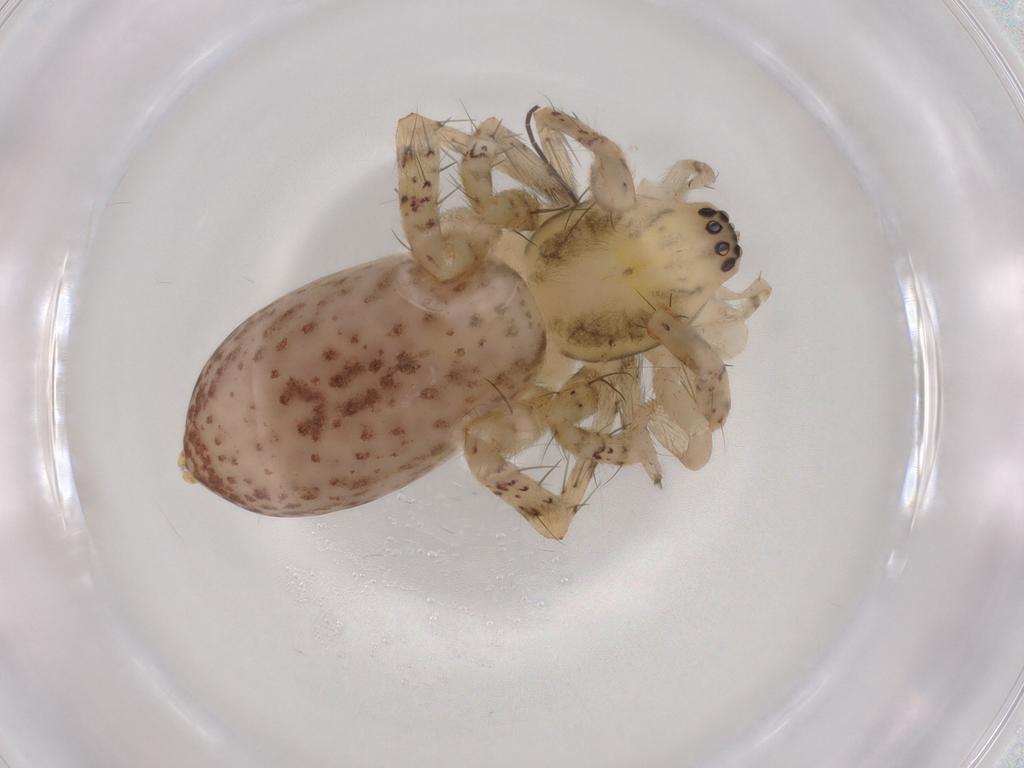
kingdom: Animalia
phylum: Arthropoda
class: Arachnida
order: Araneae
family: Anyphaenidae
